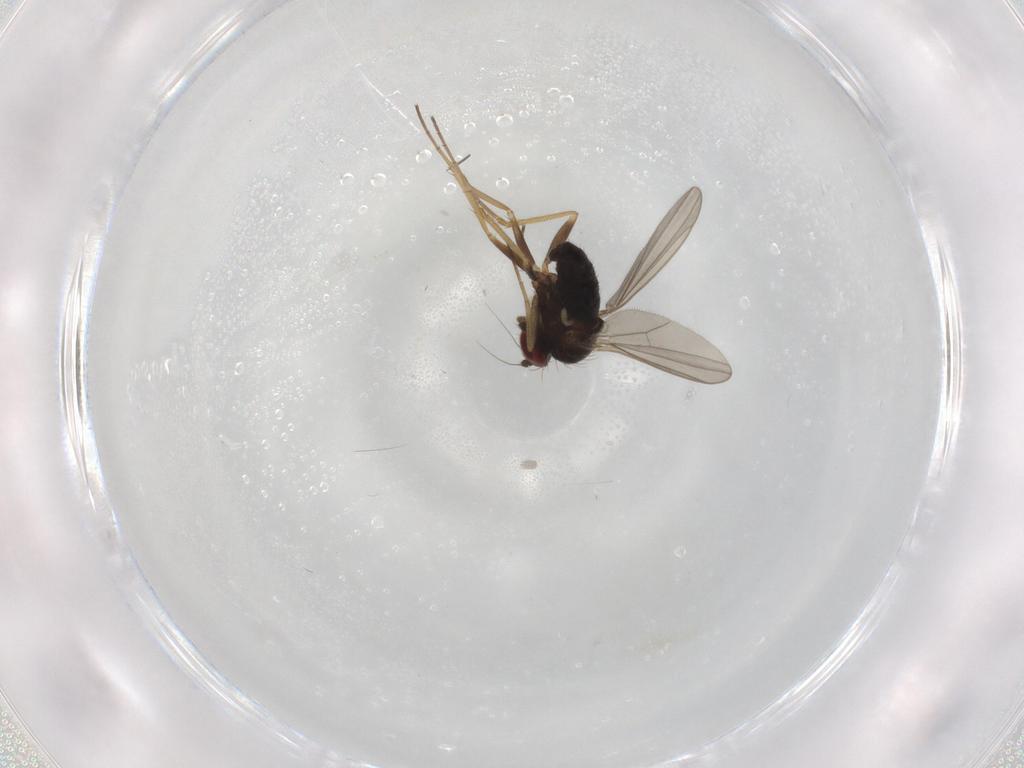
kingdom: Animalia
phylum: Arthropoda
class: Insecta
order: Diptera
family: Dolichopodidae
